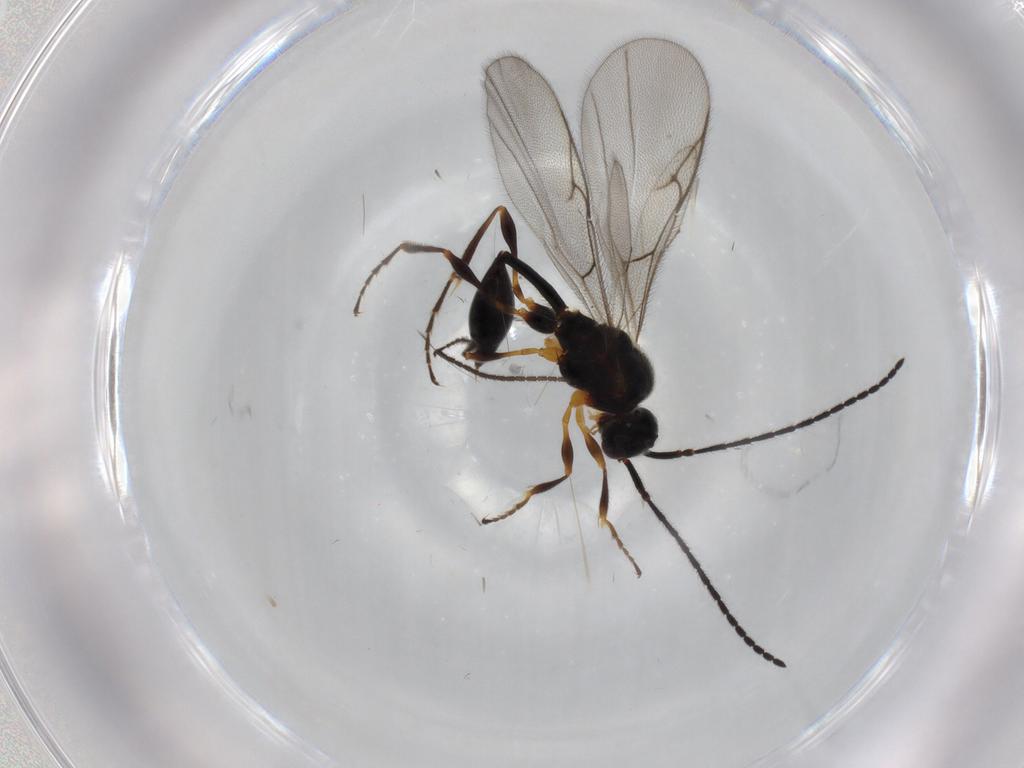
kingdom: Animalia
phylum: Arthropoda
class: Insecta
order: Hymenoptera
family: Diapriidae
